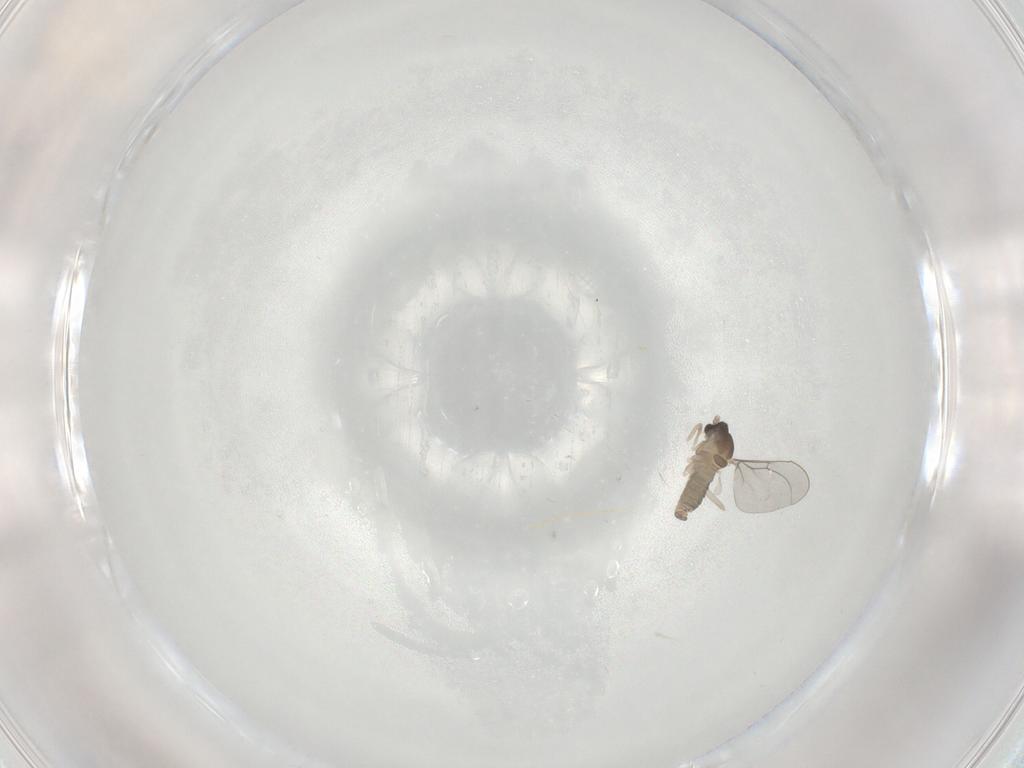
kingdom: Animalia
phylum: Arthropoda
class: Insecta
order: Diptera
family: Cecidomyiidae
